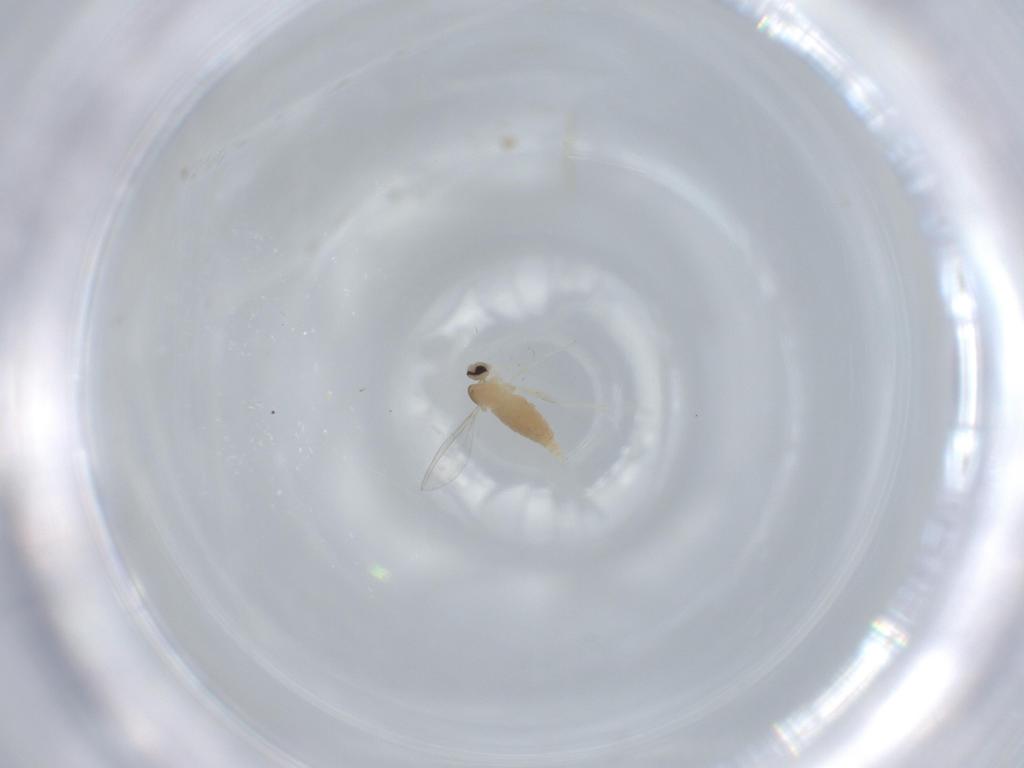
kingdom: Animalia
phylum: Arthropoda
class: Insecta
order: Diptera
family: Cecidomyiidae
